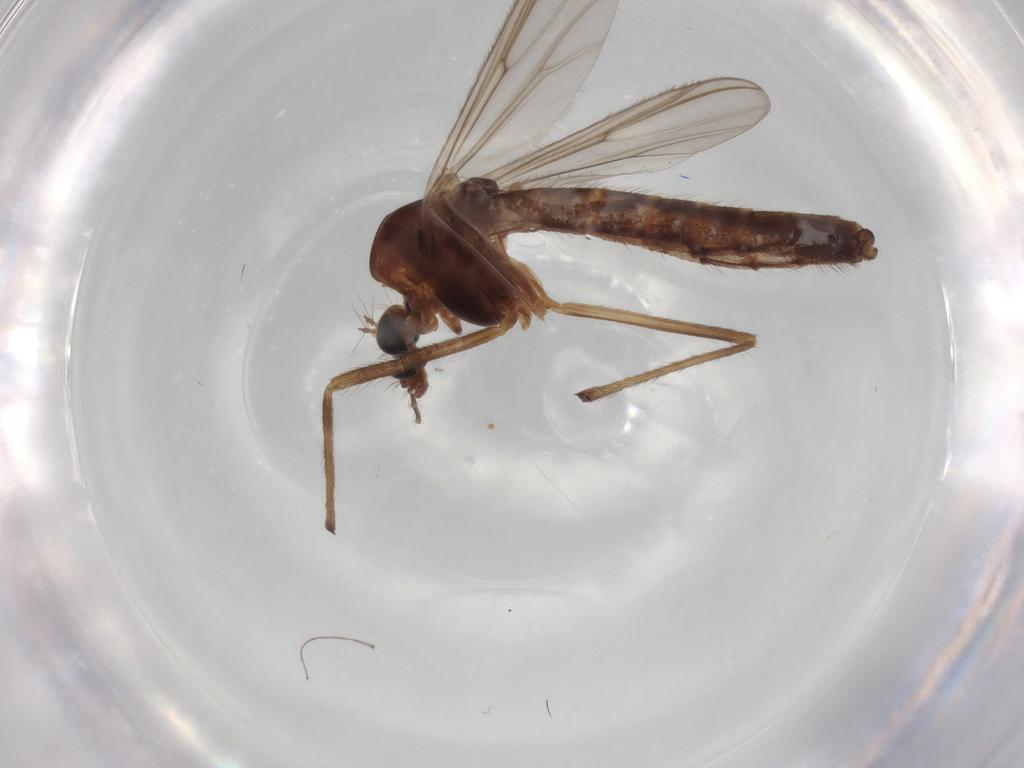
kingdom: Animalia
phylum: Arthropoda
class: Insecta
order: Diptera
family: Chironomidae
